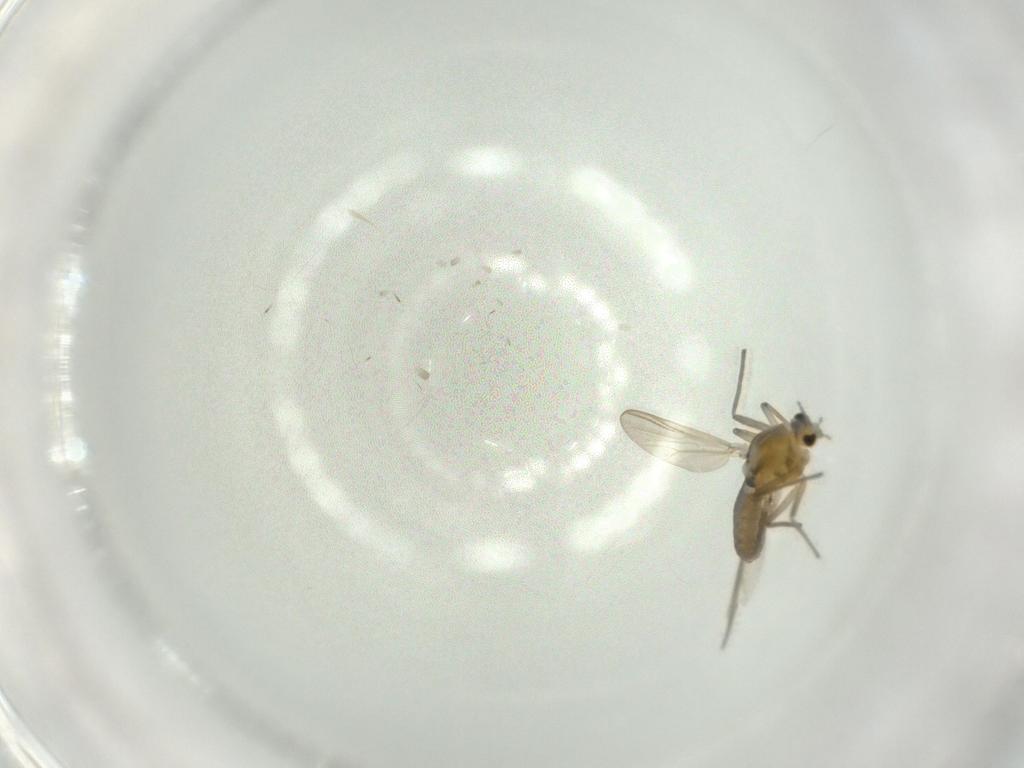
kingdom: Animalia
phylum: Arthropoda
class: Insecta
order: Diptera
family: Chironomidae
